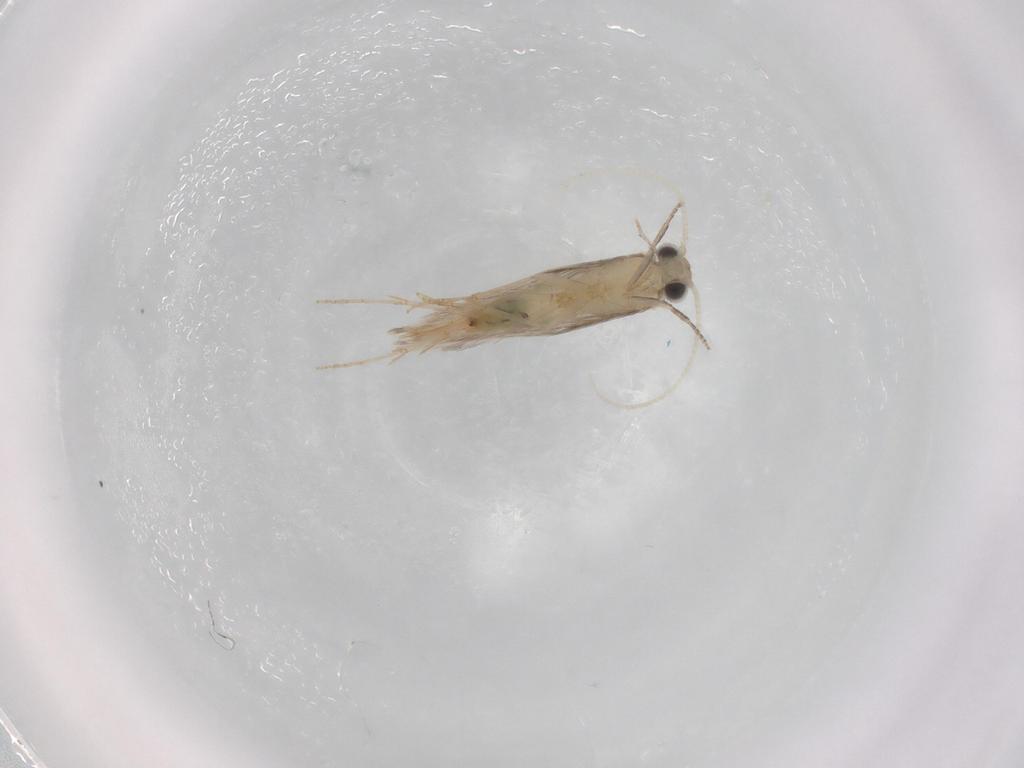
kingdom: Animalia
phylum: Arthropoda
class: Insecta
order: Trichoptera
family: Hydroptilidae
